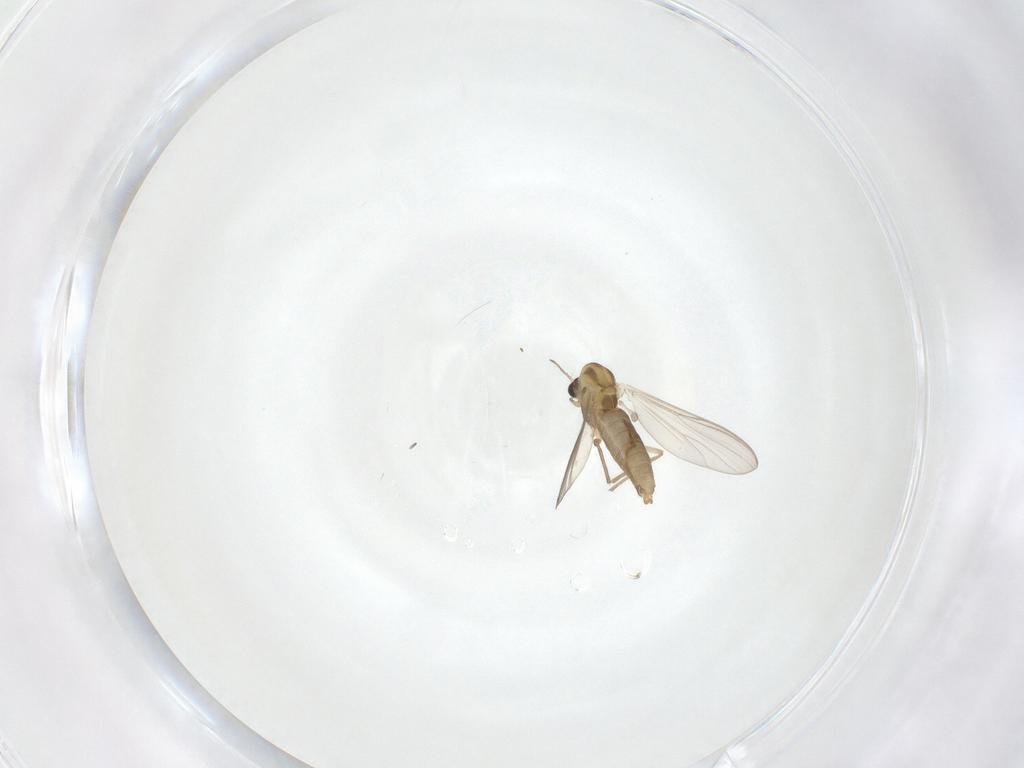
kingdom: Animalia
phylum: Arthropoda
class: Insecta
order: Diptera
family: Chironomidae
